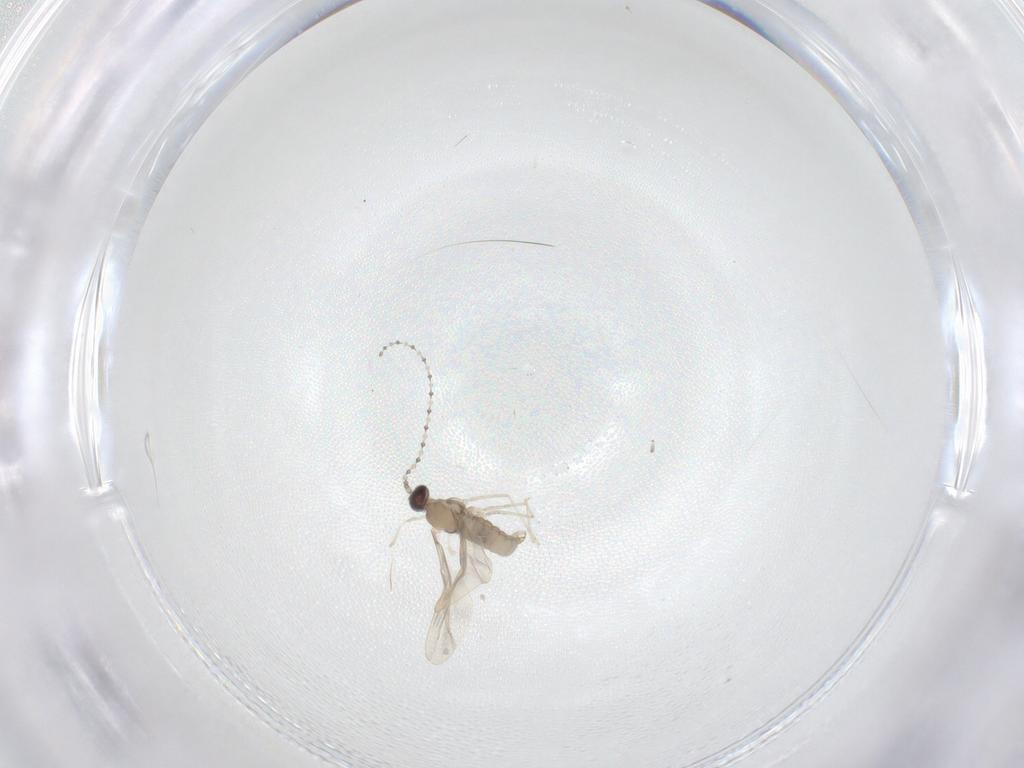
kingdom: Animalia
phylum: Arthropoda
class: Insecta
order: Diptera
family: Cecidomyiidae
